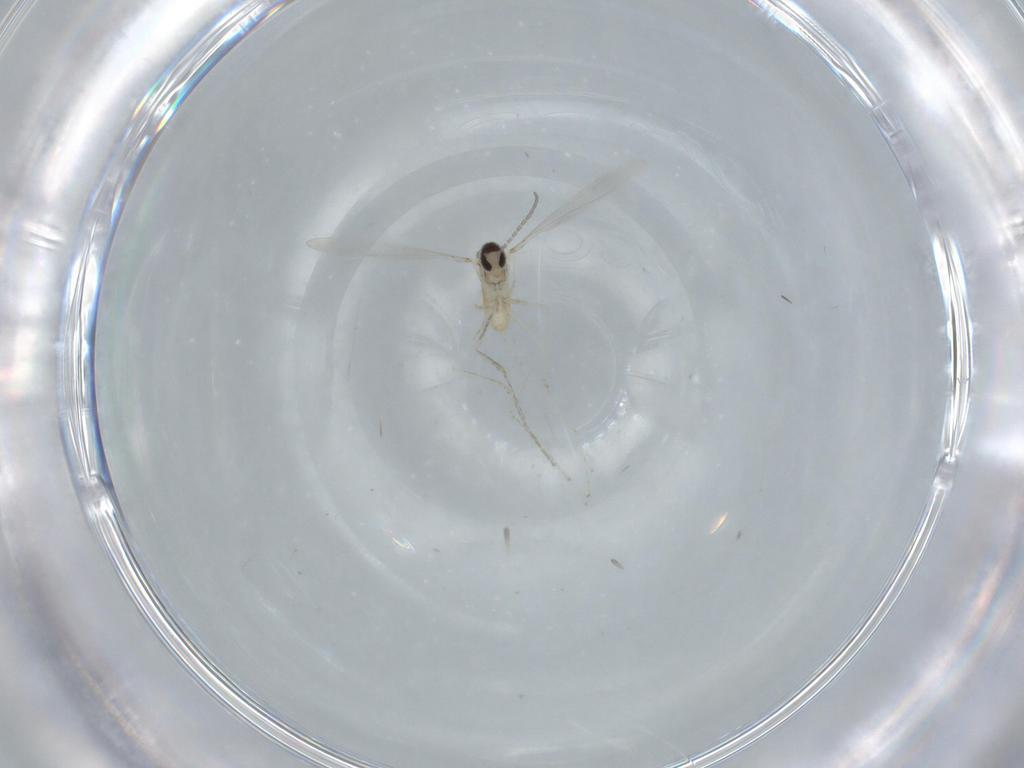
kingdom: Animalia
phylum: Arthropoda
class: Insecta
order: Diptera
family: Cecidomyiidae
